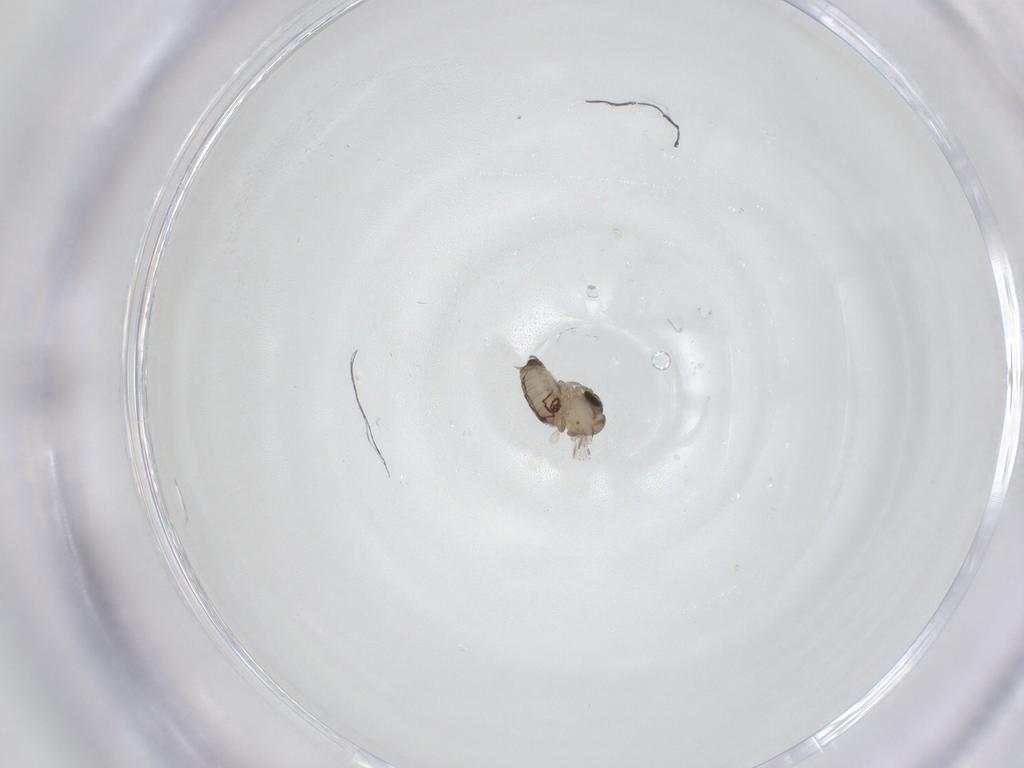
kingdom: Animalia
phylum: Arthropoda
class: Insecta
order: Diptera
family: Psychodidae
